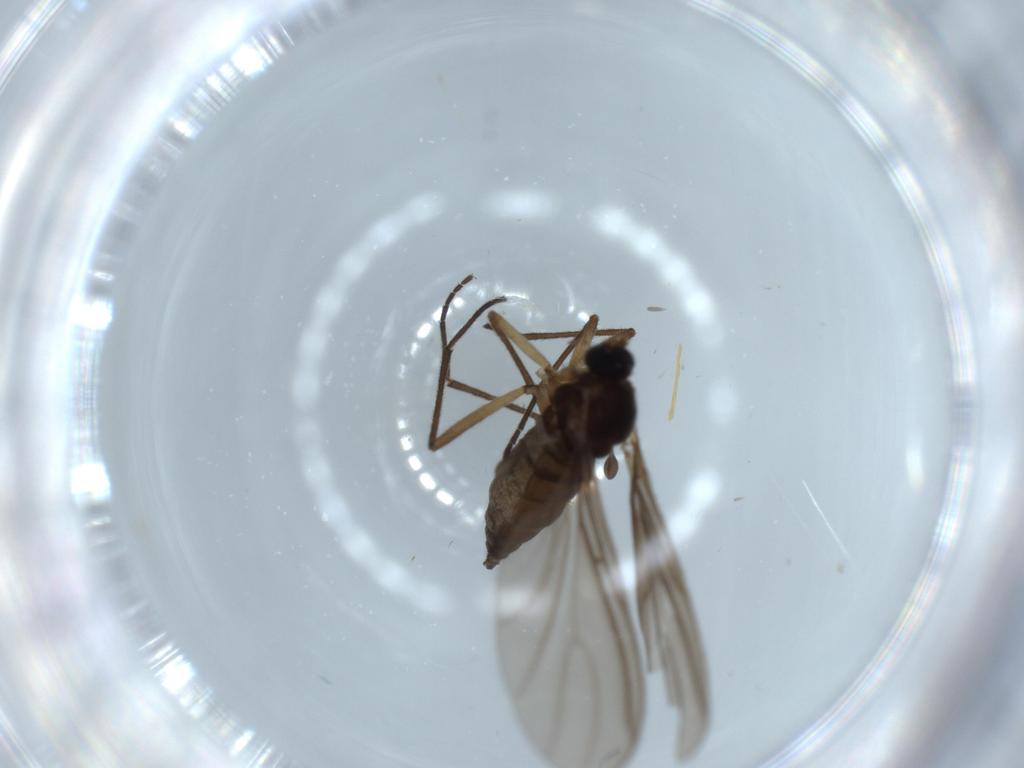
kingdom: Animalia
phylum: Arthropoda
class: Insecta
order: Diptera
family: Sciaridae
